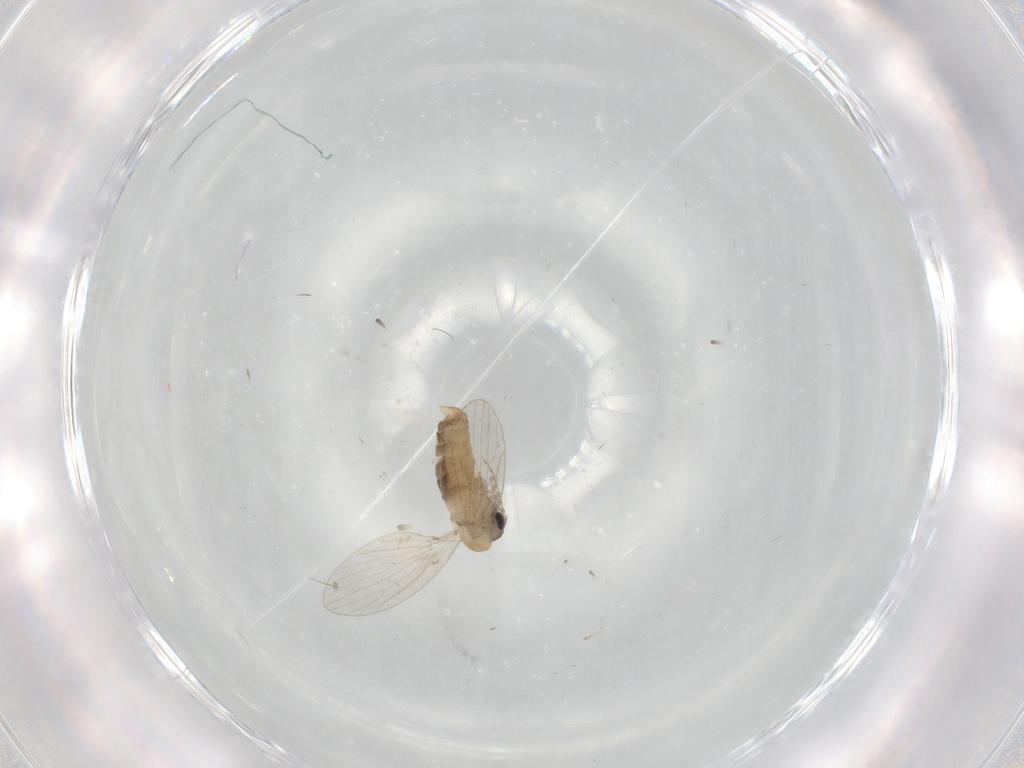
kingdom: Animalia
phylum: Arthropoda
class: Insecta
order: Diptera
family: Psychodidae
